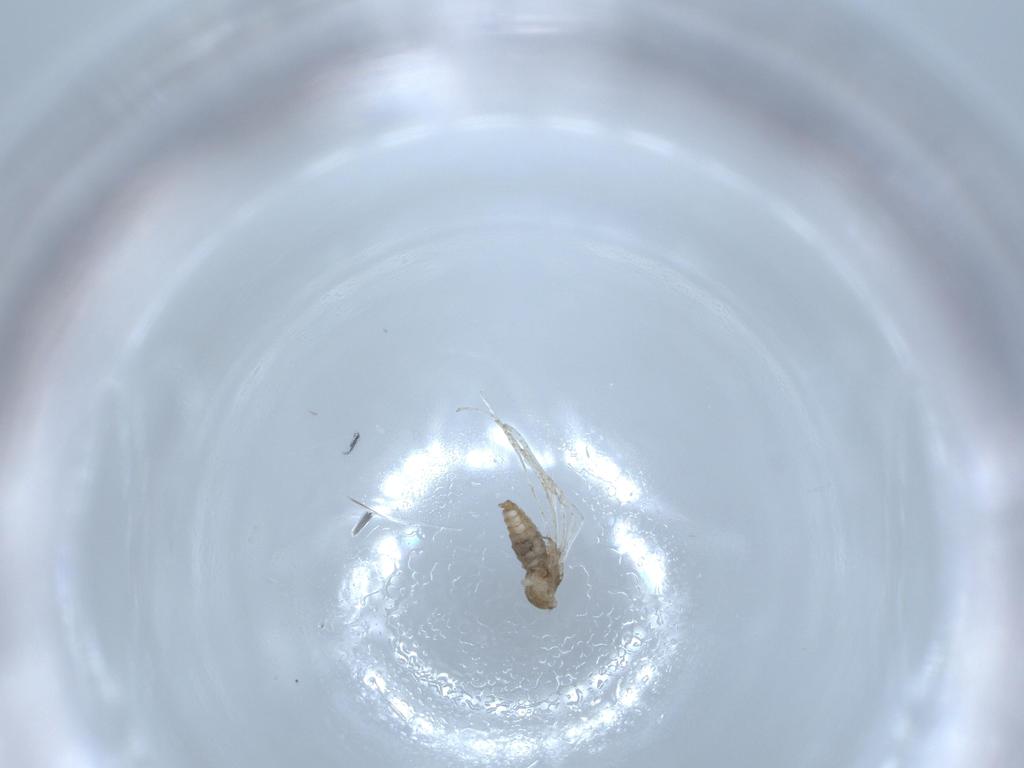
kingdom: Animalia
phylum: Arthropoda
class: Insecta
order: Diptera
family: Cecidomyiidae
